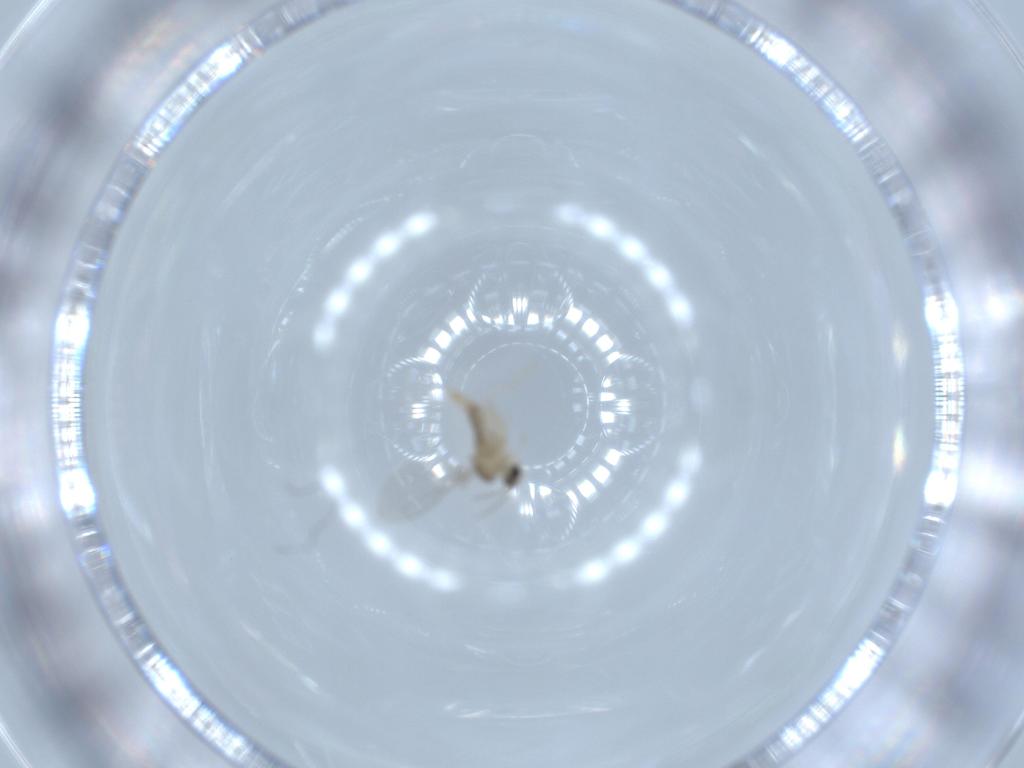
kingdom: Animalia
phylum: Arthropoda
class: Insecta
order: Diptera
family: Cecidomyiidae
